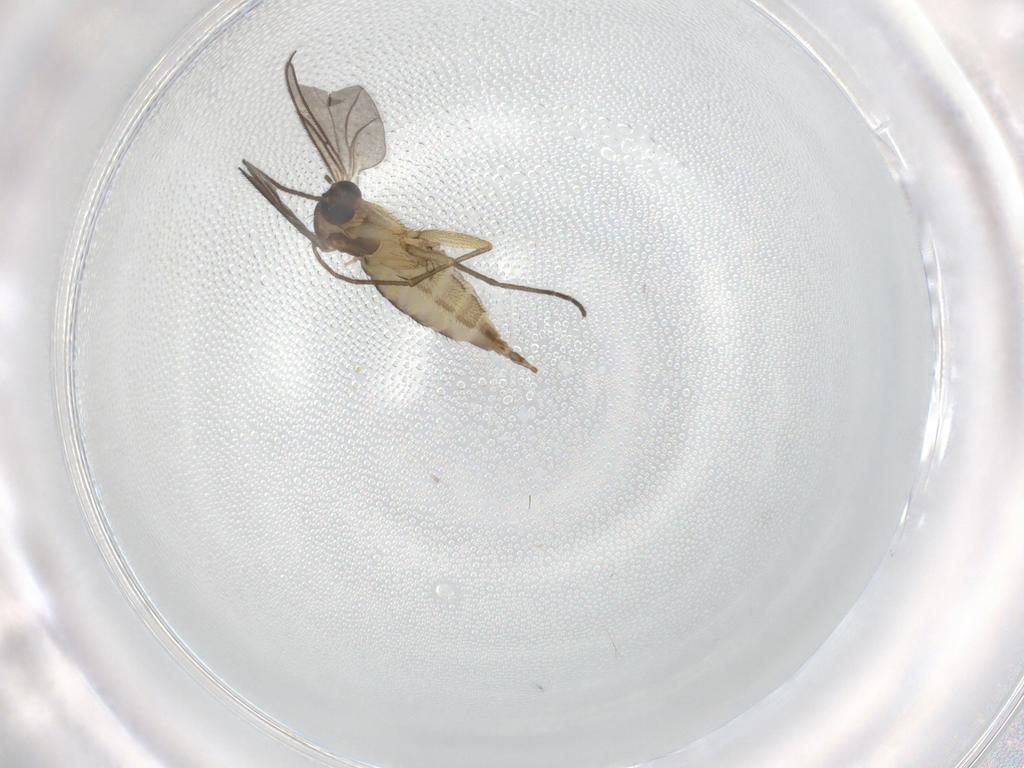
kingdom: Animalia
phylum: Arthropoda
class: Insecta
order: Diptera
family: Sciaridae
